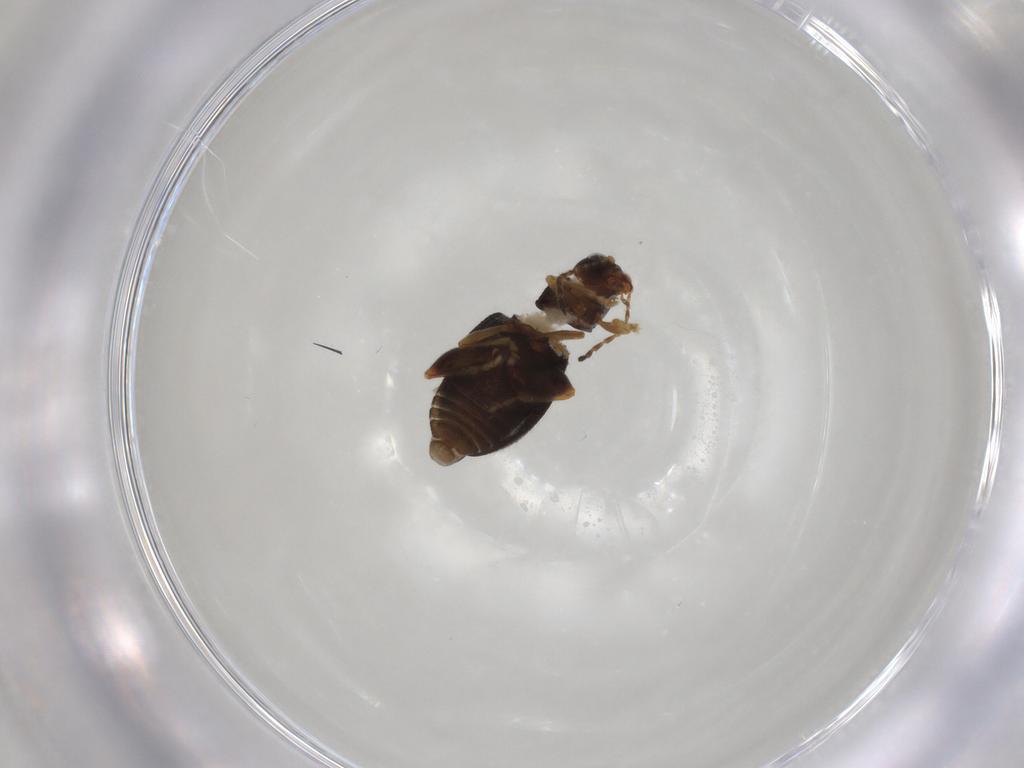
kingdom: Animalia
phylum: Arthropoda
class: Insecta
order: Coleoptera
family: Chrysomelidae
